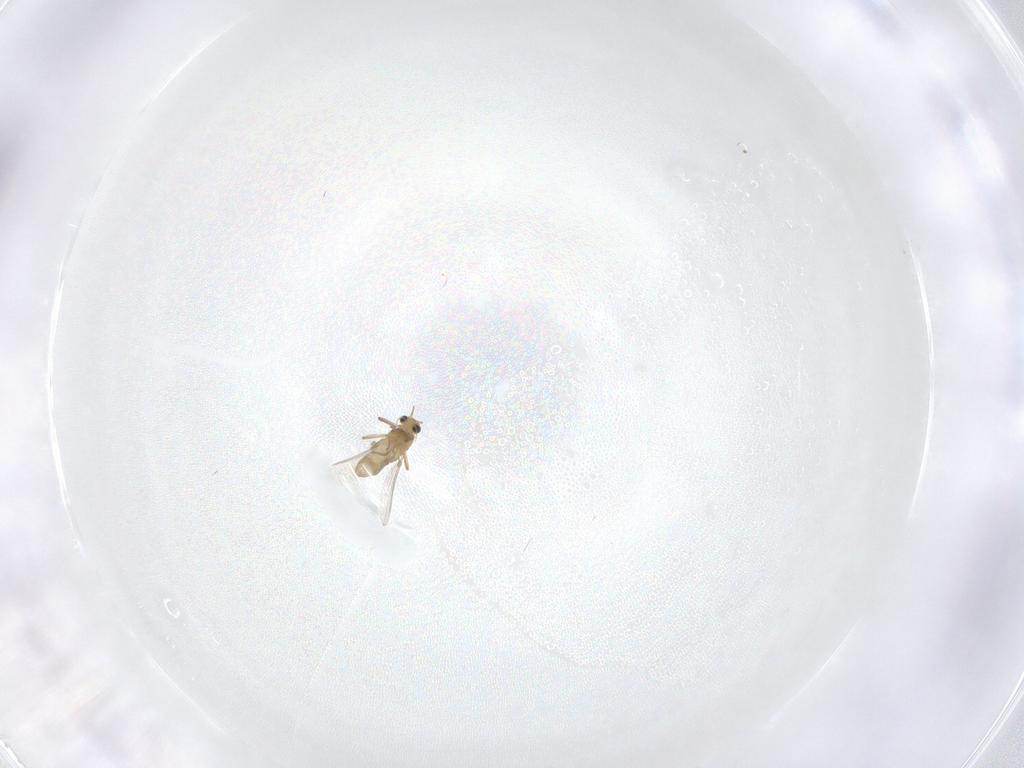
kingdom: Animalia
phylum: Arthropoda
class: Insecta
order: Diptera
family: Chironomidae
